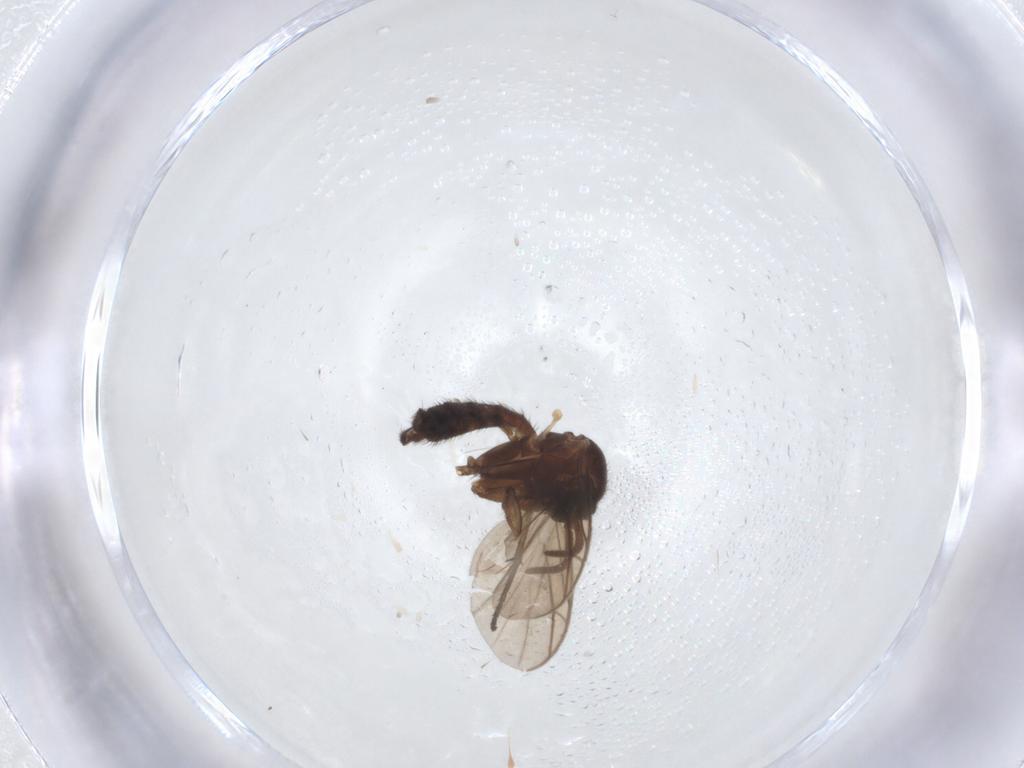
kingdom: Animalia
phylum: Arthropoda
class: Insecta
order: Diptera
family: Keroplatidae
